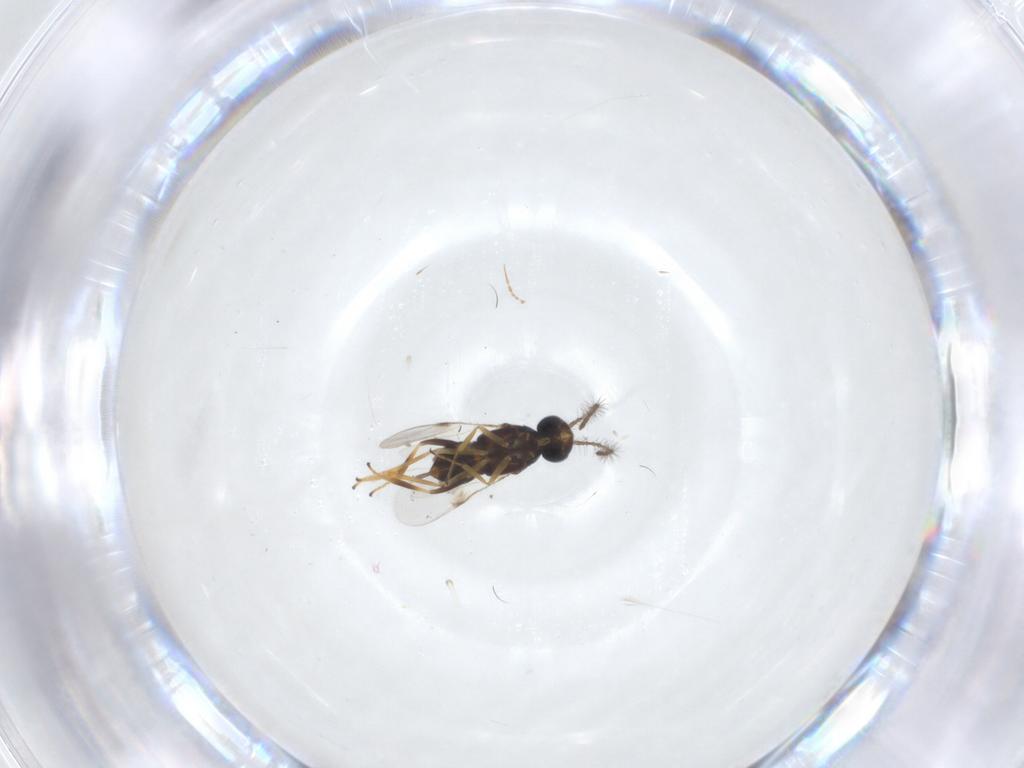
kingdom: Animalia
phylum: Arthropoda
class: Insecta
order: Hymenoptera
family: Encyrtidae
